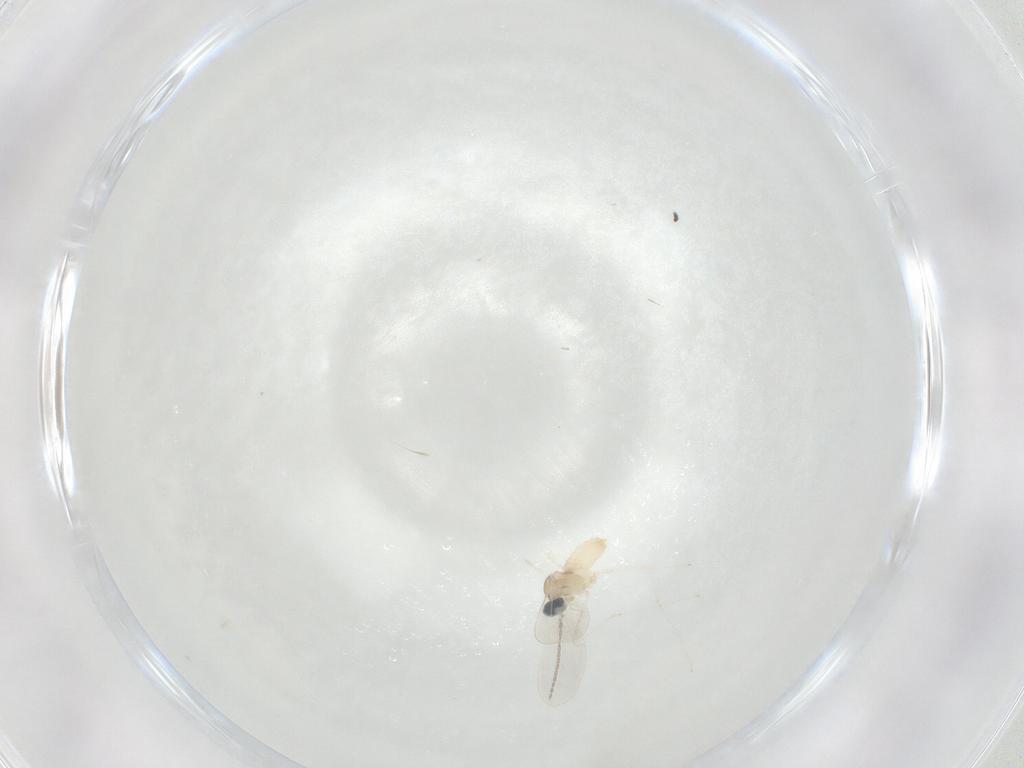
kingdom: Animalia
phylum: Arthropoda
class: Insecta
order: Diptera
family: Cecidomyiidae
